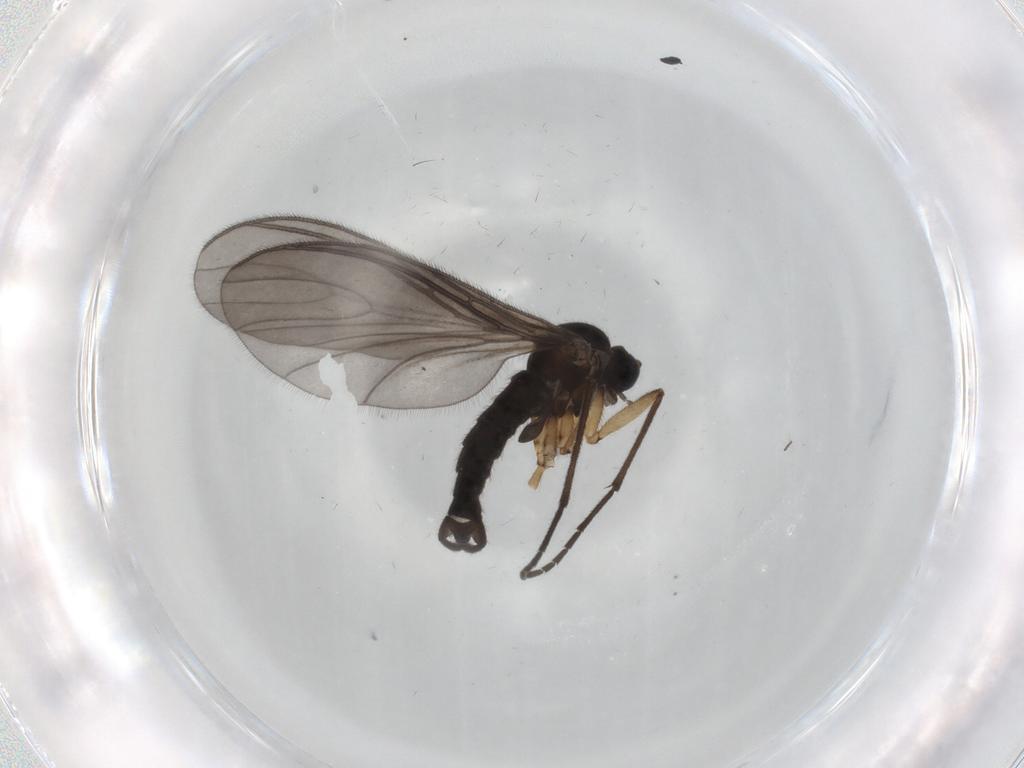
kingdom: Animalia
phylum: Arthropoda
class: Insecta
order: Diptera
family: Sciaridae
